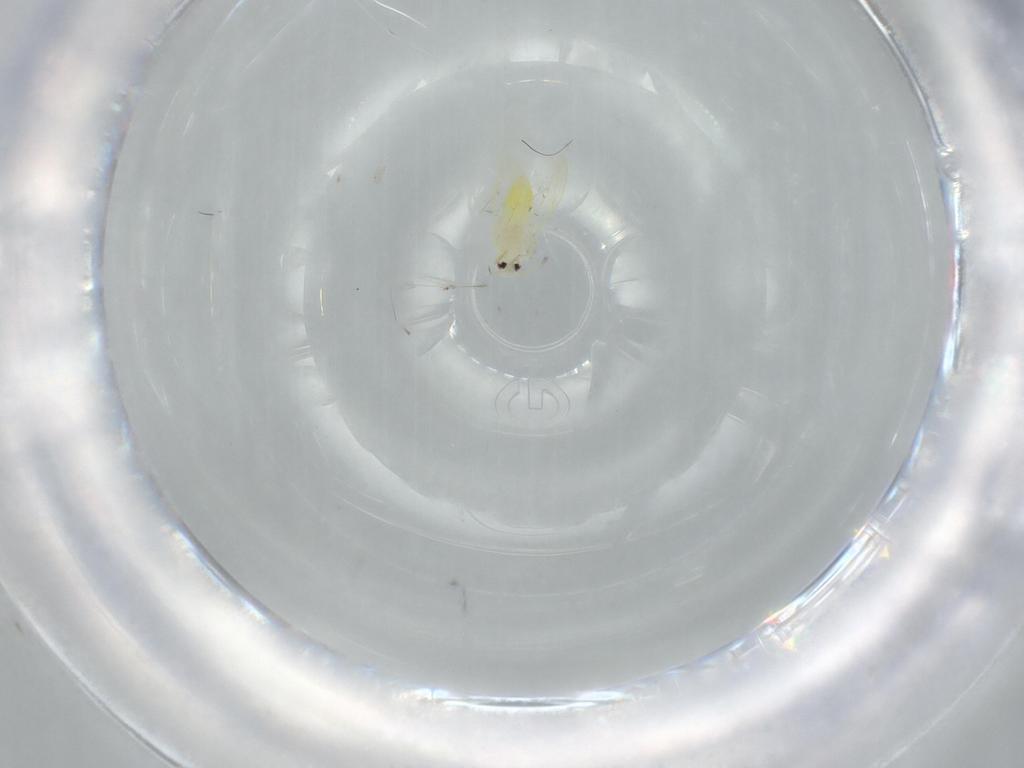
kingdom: Animalia
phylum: Arthropoda
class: Insecta
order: Hemiptera
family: Aleyrodidae
